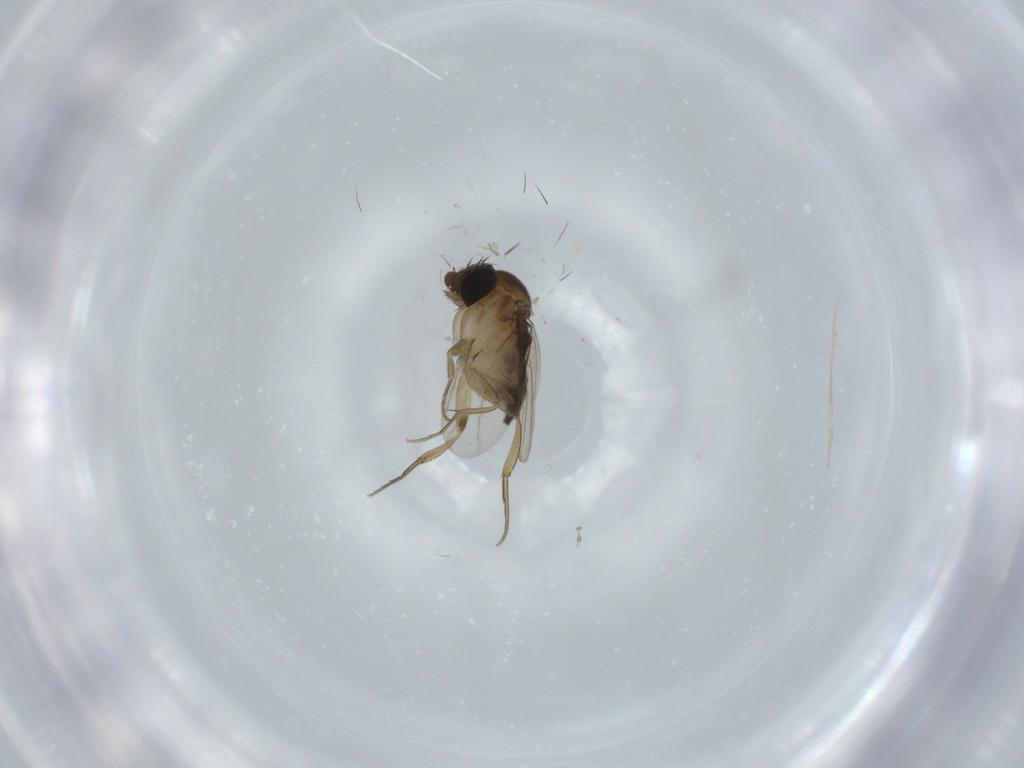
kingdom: Animalia
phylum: Arthropoda
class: Insecta
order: Diptera
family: Phoridae
